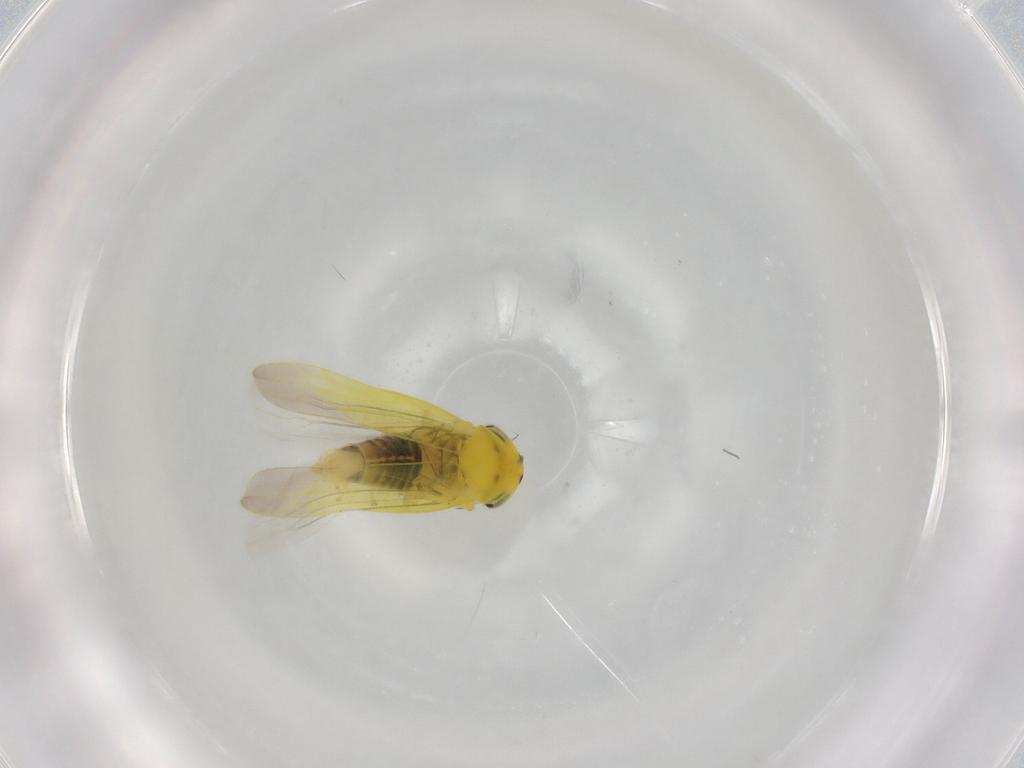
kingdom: Animalia
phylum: Arthropoda
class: Insecta
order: Hemiptera
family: Cicadellidae
